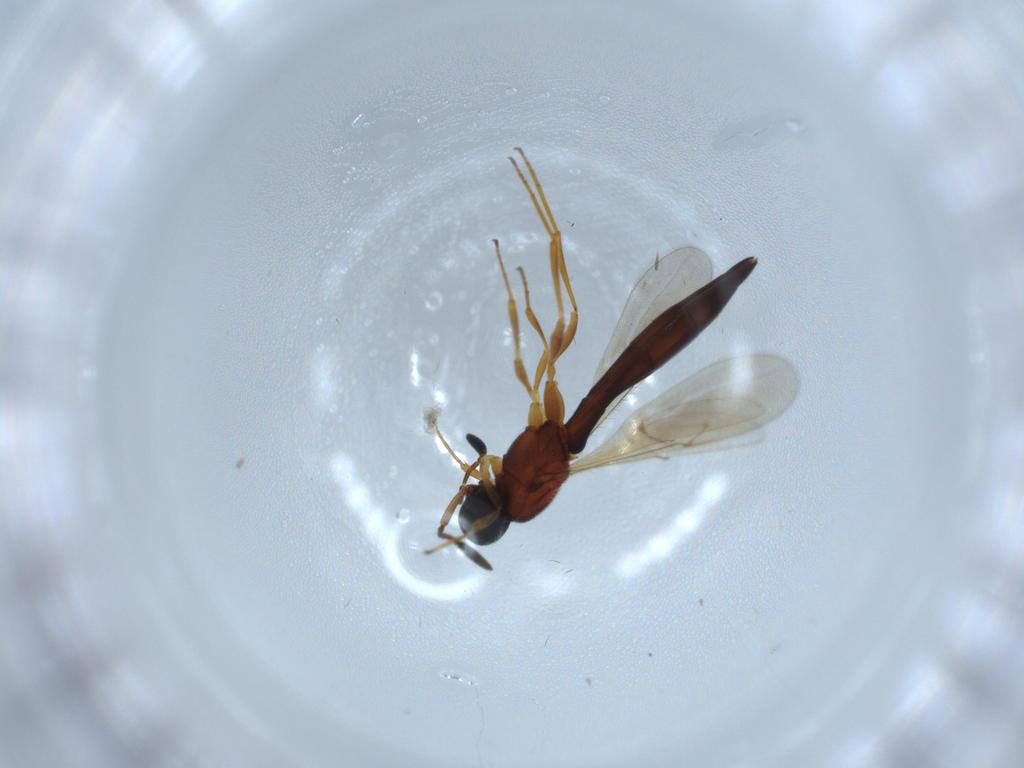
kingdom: Animalia
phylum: Arthropoda
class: Insecta
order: Hymenoptera
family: Scelionidae
